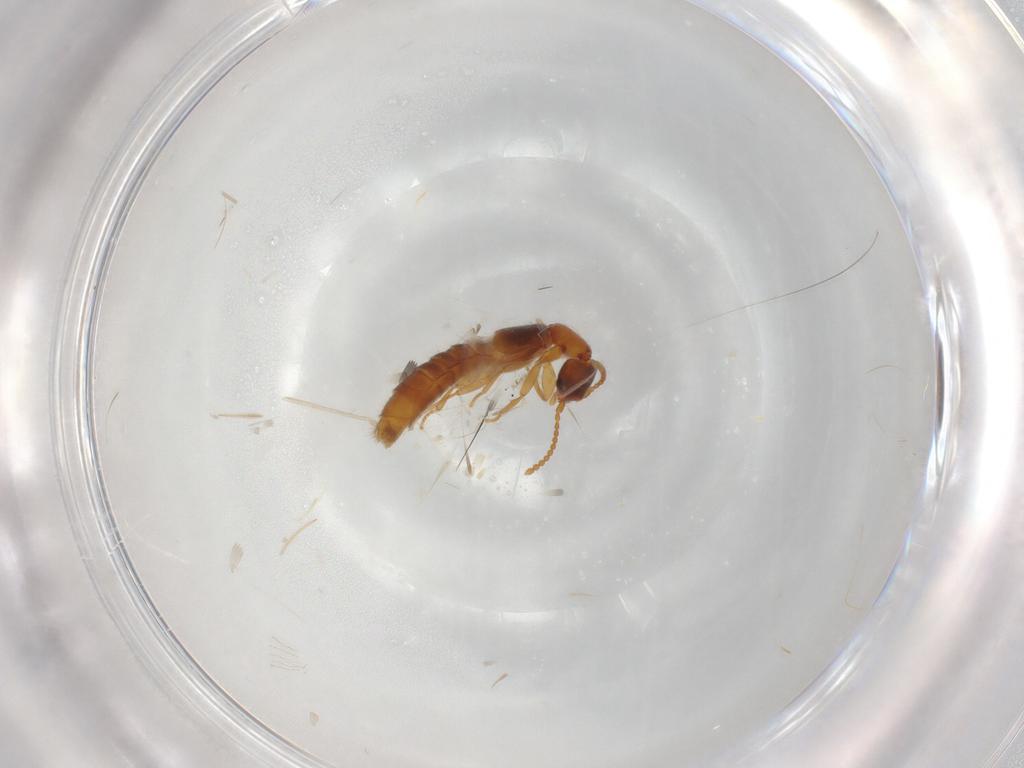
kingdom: Animalia
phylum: Arthropoda
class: Insecta
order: Coleoptera
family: Staphylinidae
